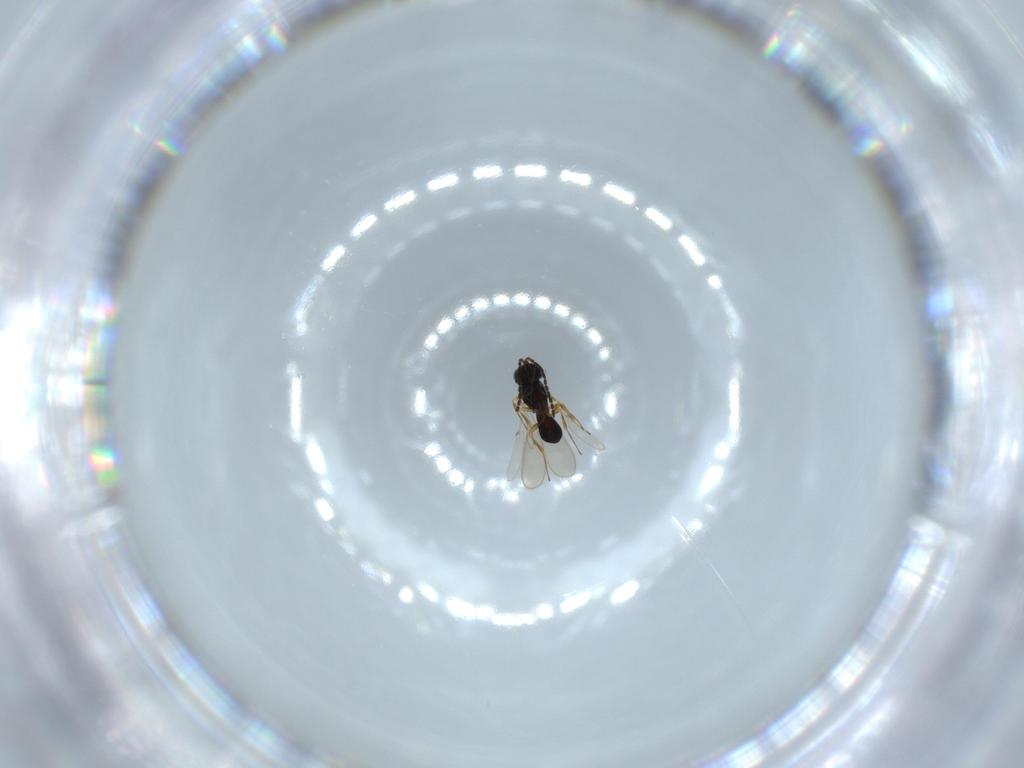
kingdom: Animalia
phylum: Arthropoda
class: Insecta
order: Hymenoptera
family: Scelionidae
